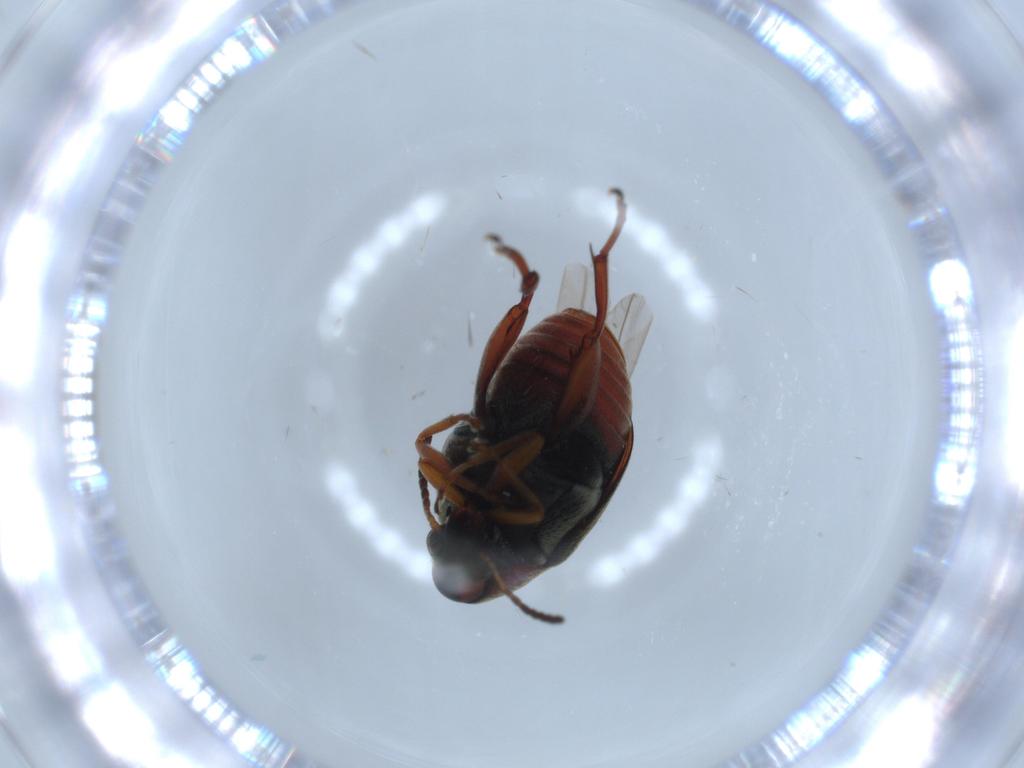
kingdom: Animalia
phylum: Arthropoda
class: Insecta
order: Coleoptera
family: Chrysomelidae
